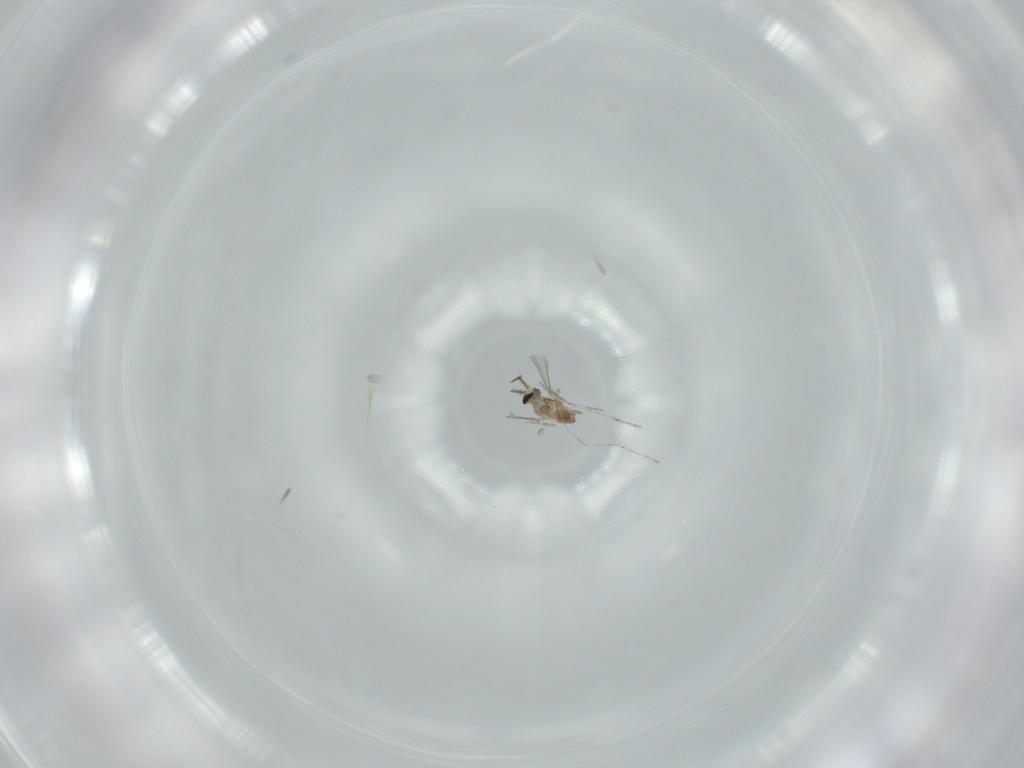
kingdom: Animalia
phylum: Arthropoda
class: Insecta
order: Diptera
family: Cecidomyiidae
